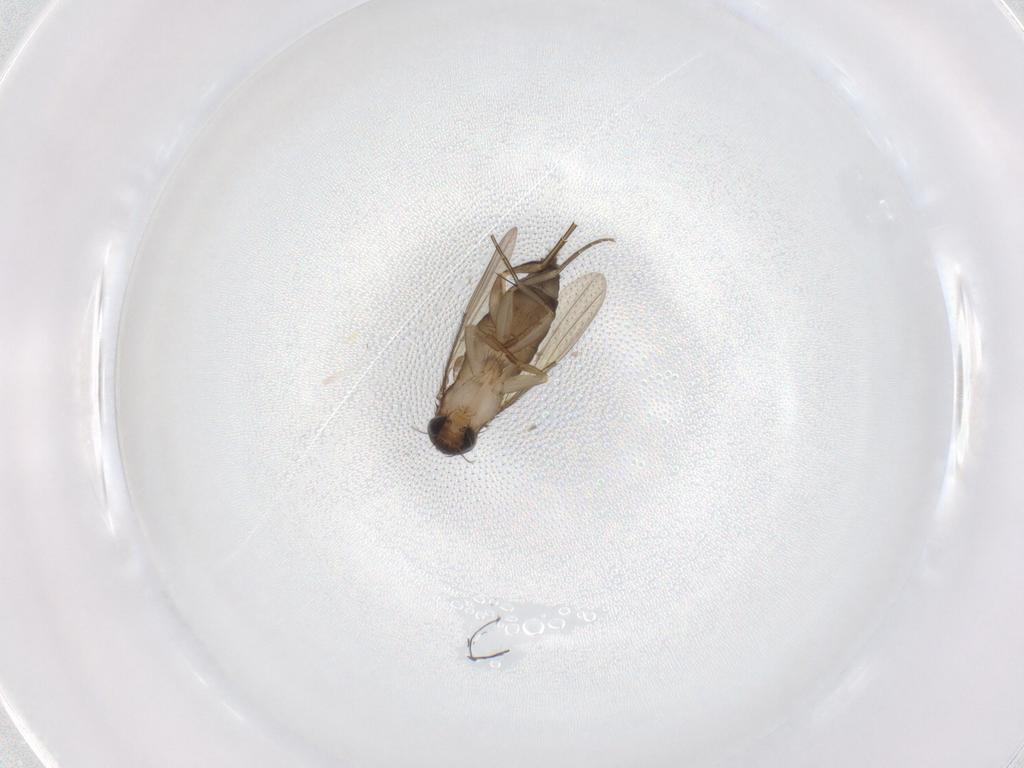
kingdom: Animalia
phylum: Arthropoda
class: Insecta
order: Diptera
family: Phoridae
